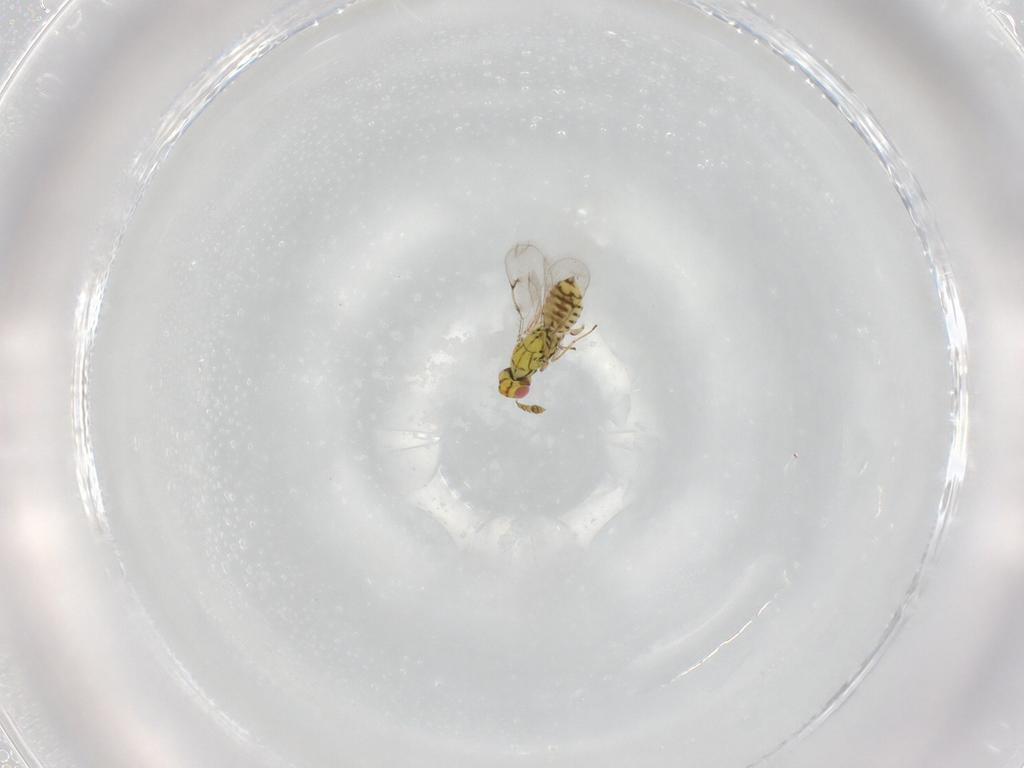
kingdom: Animalia
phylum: Arthropoda
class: Insecta
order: Hymenoptera
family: Eulophidae
